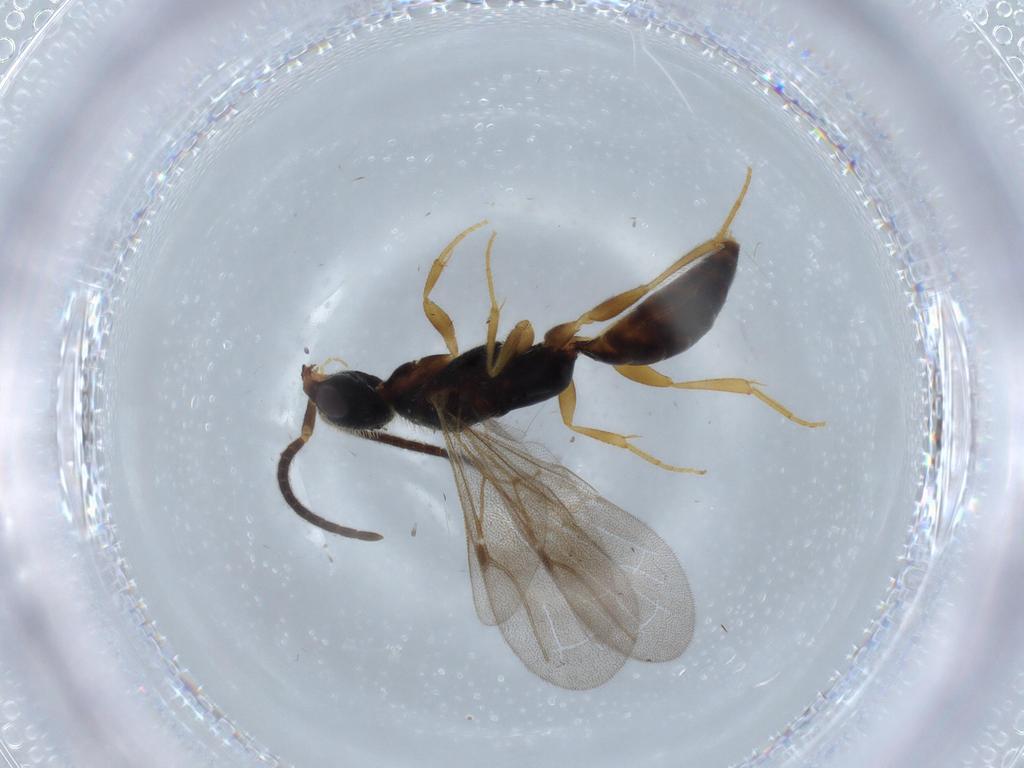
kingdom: Animalia
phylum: Arthropoda
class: Insecta
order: Hymenoptera
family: Bethylidae
